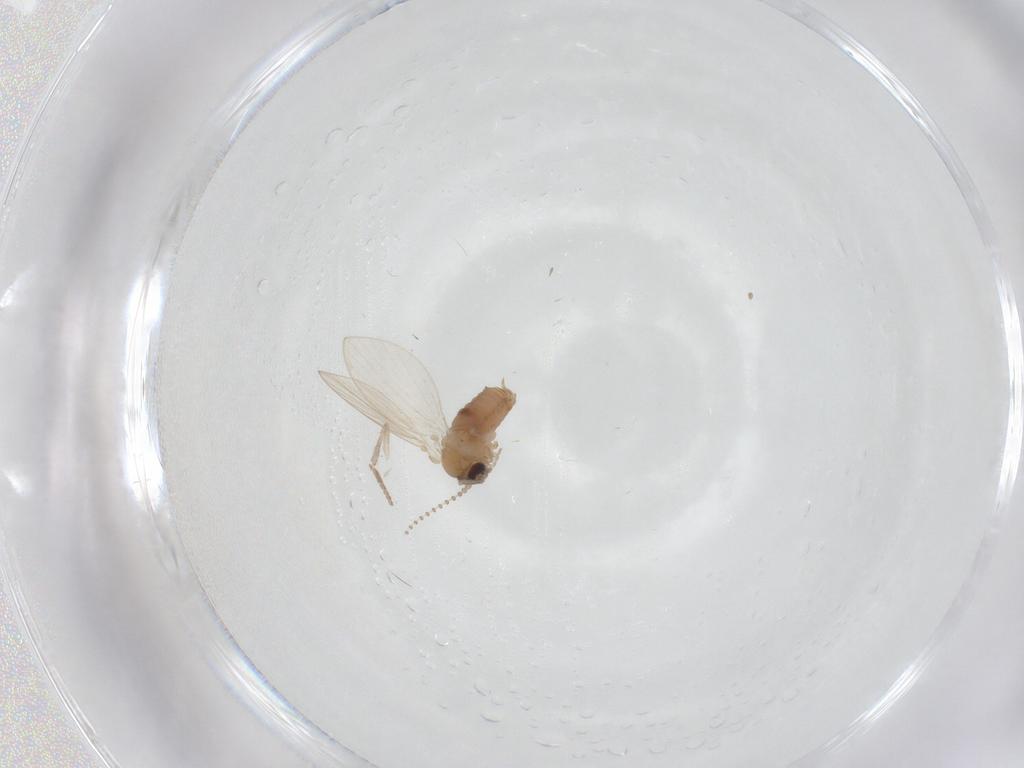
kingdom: Animalia
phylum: Arthropoda
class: Insecta
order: Diptera
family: Psychodidae
